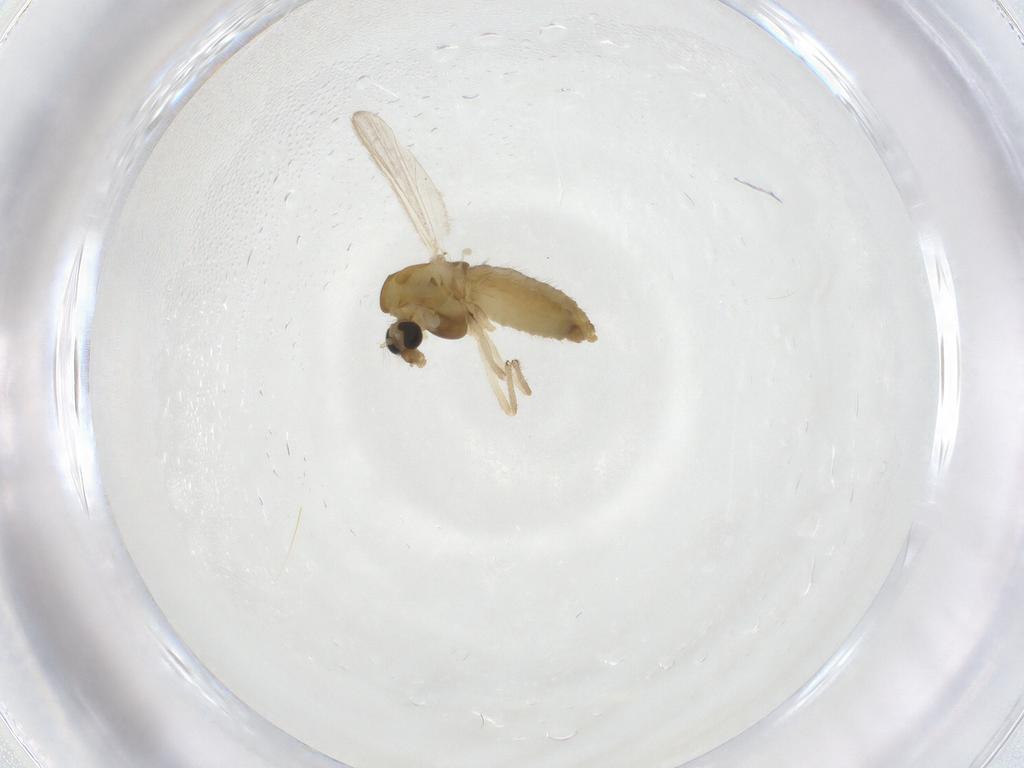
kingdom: Animalia
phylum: Arthropoda
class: Insecta
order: Diptera
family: Chironomidae
